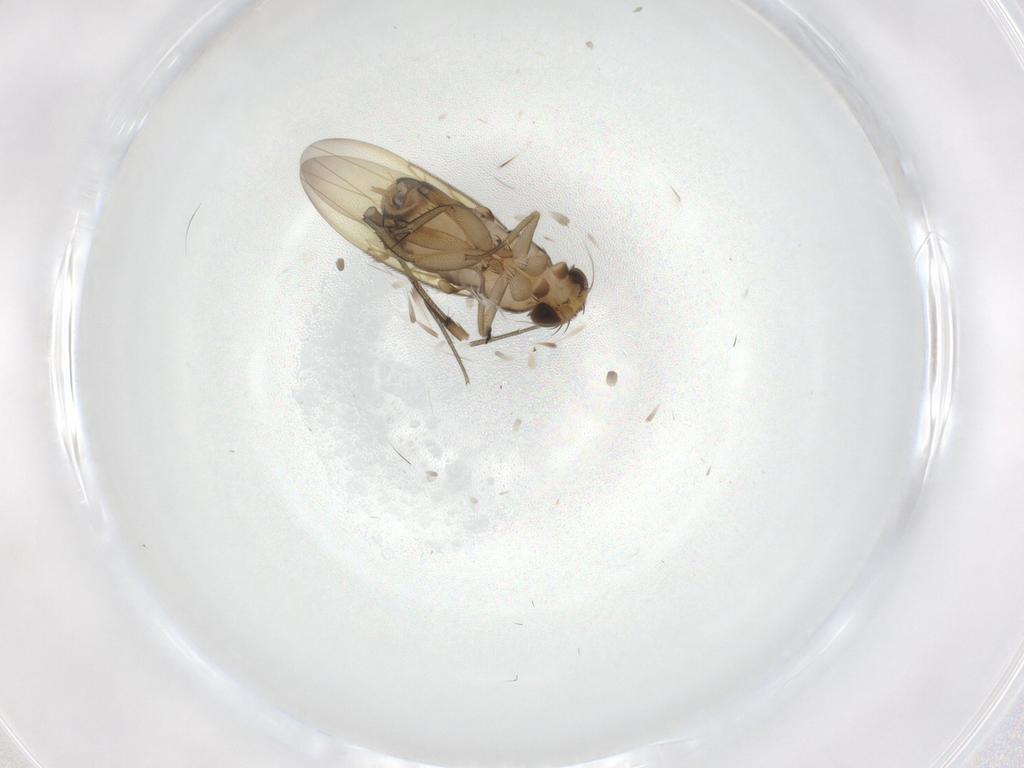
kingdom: Animalia
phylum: Arthropoda
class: Insecta
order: Diptera
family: Phoridae
